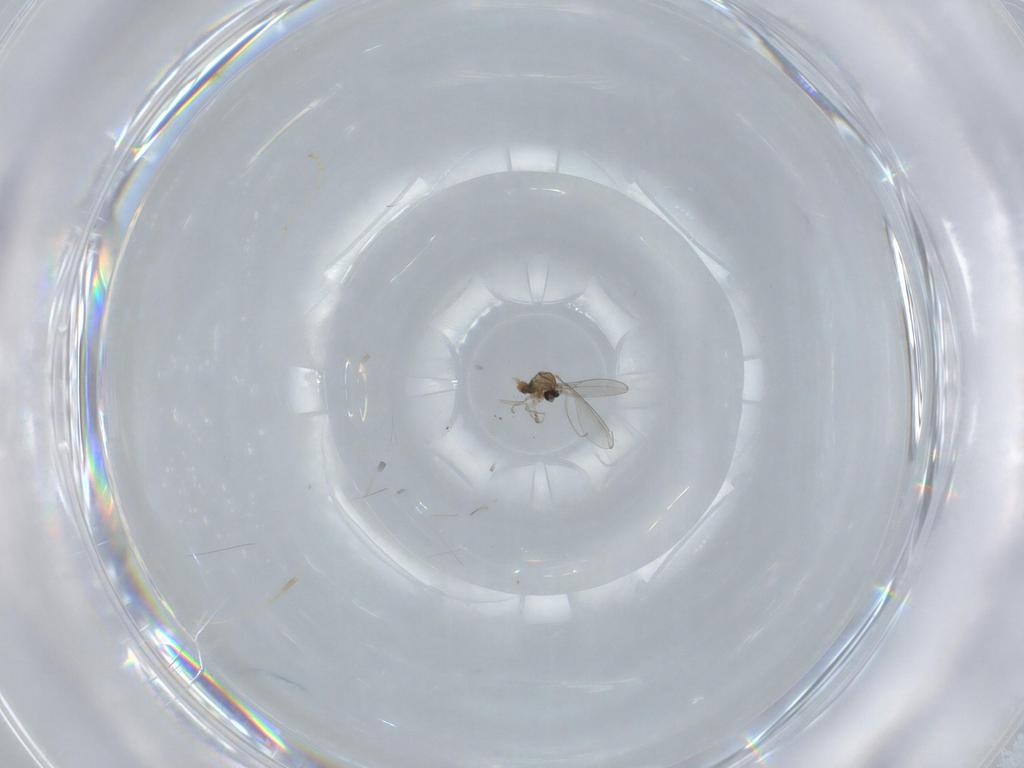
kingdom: Animalia
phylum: Arthropoda
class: Insecta
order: Diptera
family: Cecidomyiidae
